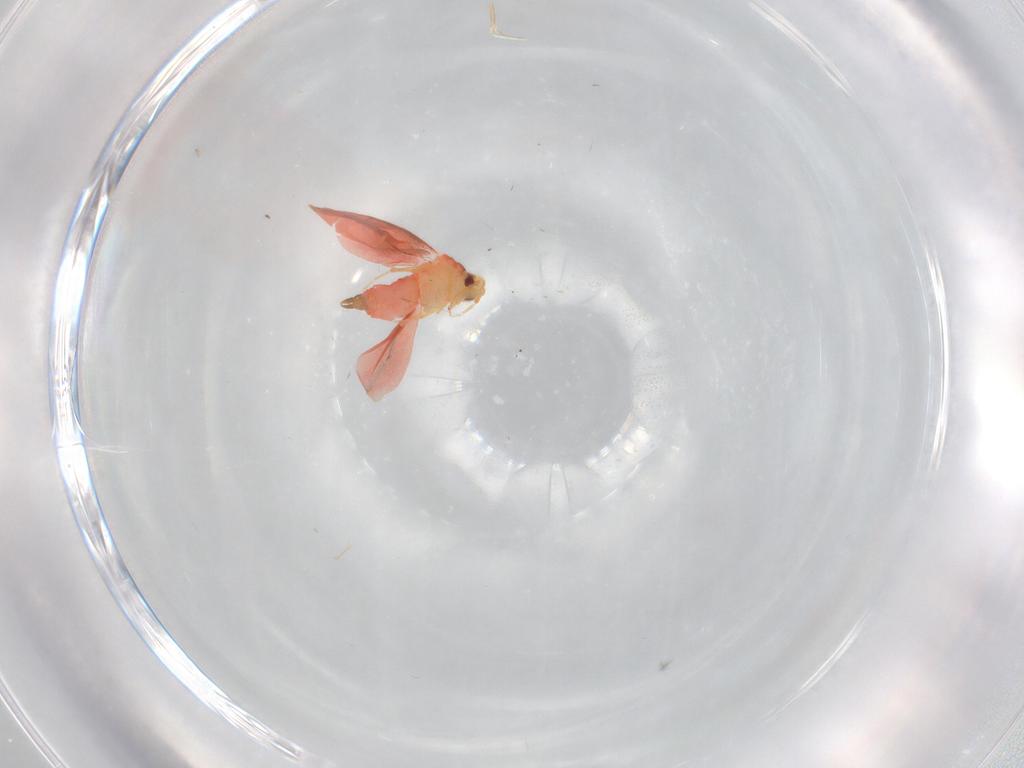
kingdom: Animalia
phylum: Arthropoda
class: Insecta
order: Hemiptera
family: Aleyrodidae
